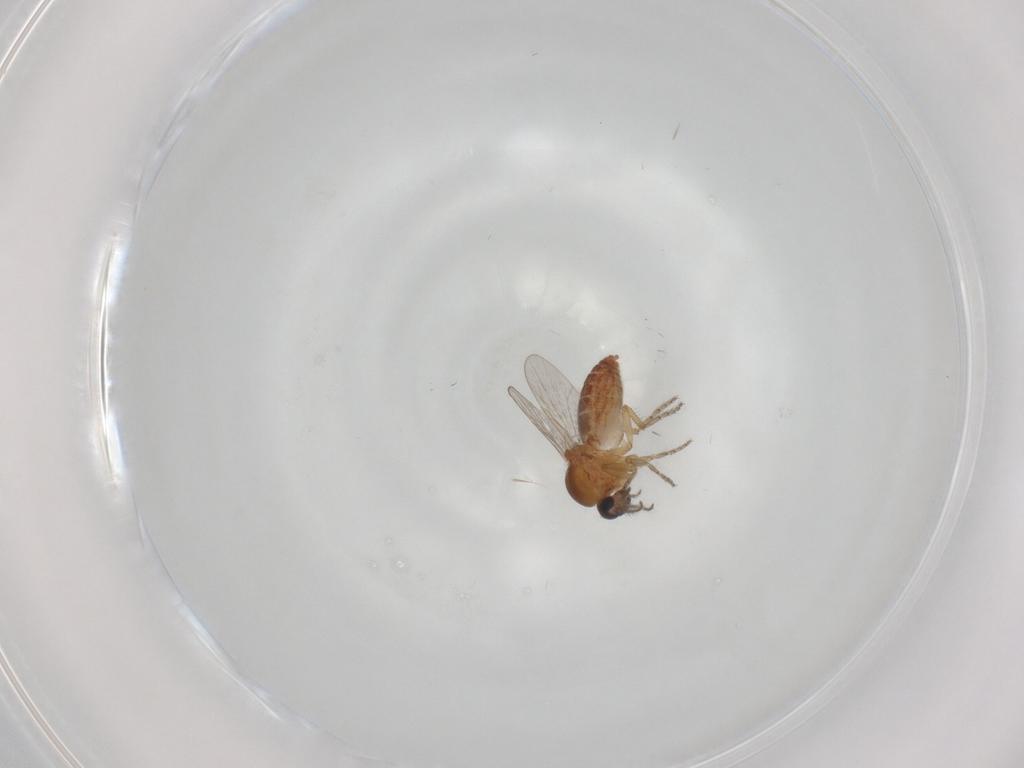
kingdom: Animalia
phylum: Arthropoda
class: Insecta
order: Diptera
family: Ceratopogonidae
